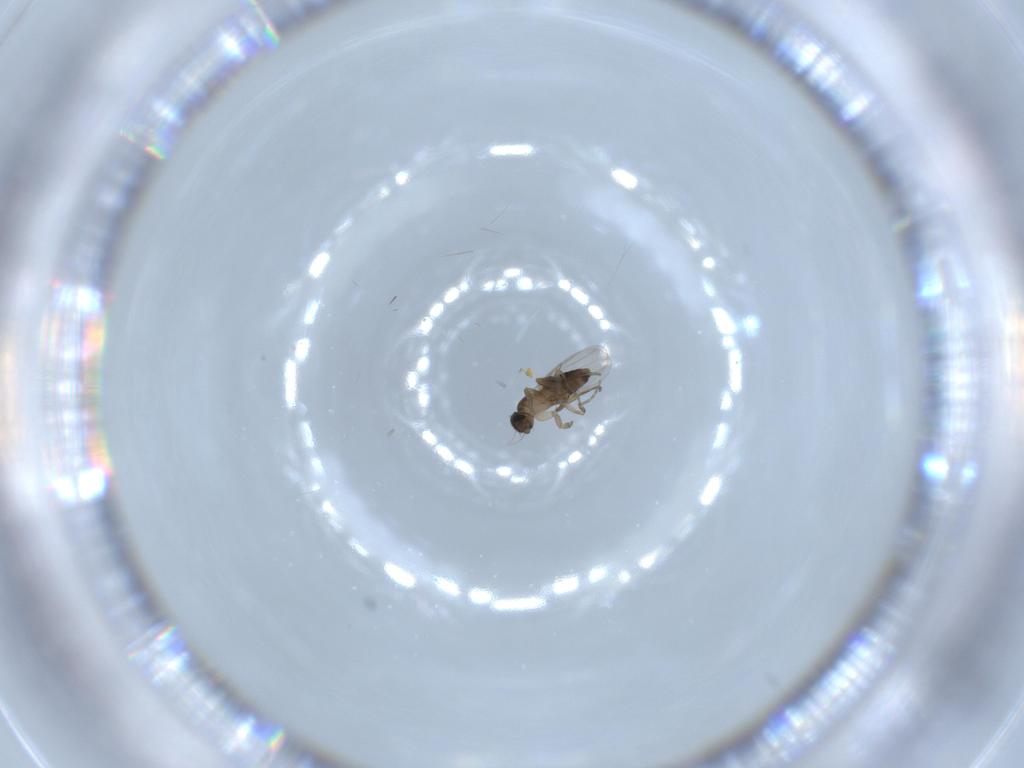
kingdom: Animalia
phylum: Arthropoda
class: Insecta
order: Diptera
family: Phoridae
